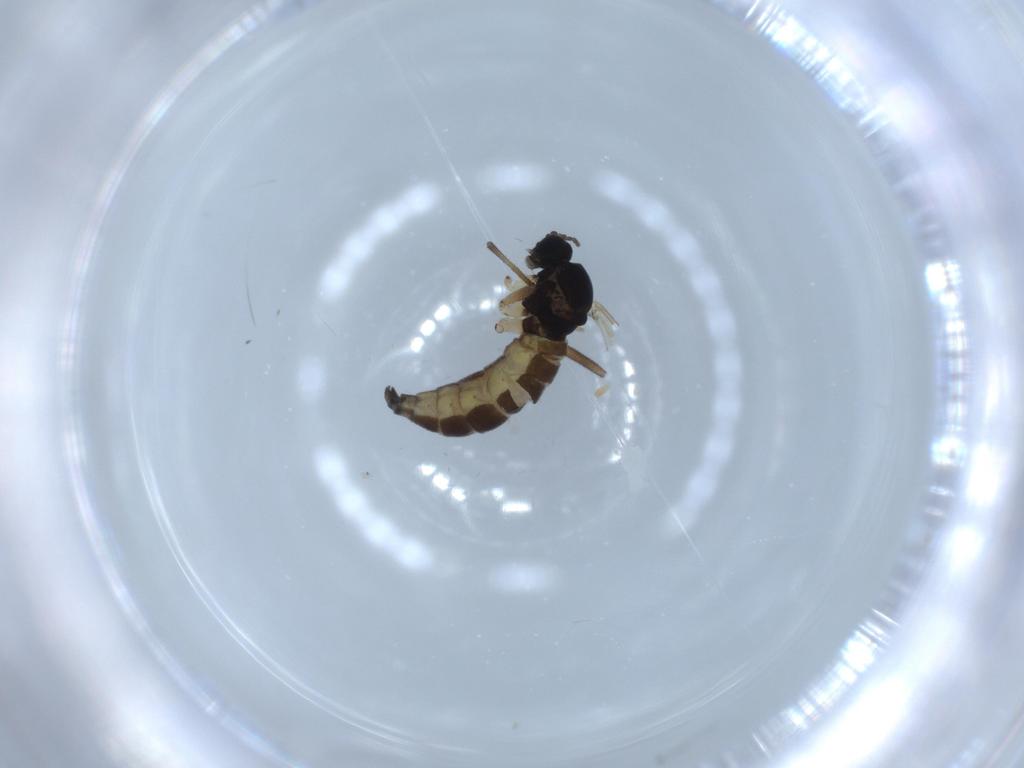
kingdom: Animalia
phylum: Arthropoda
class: Insecta
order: Diptera
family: Sciaridae
